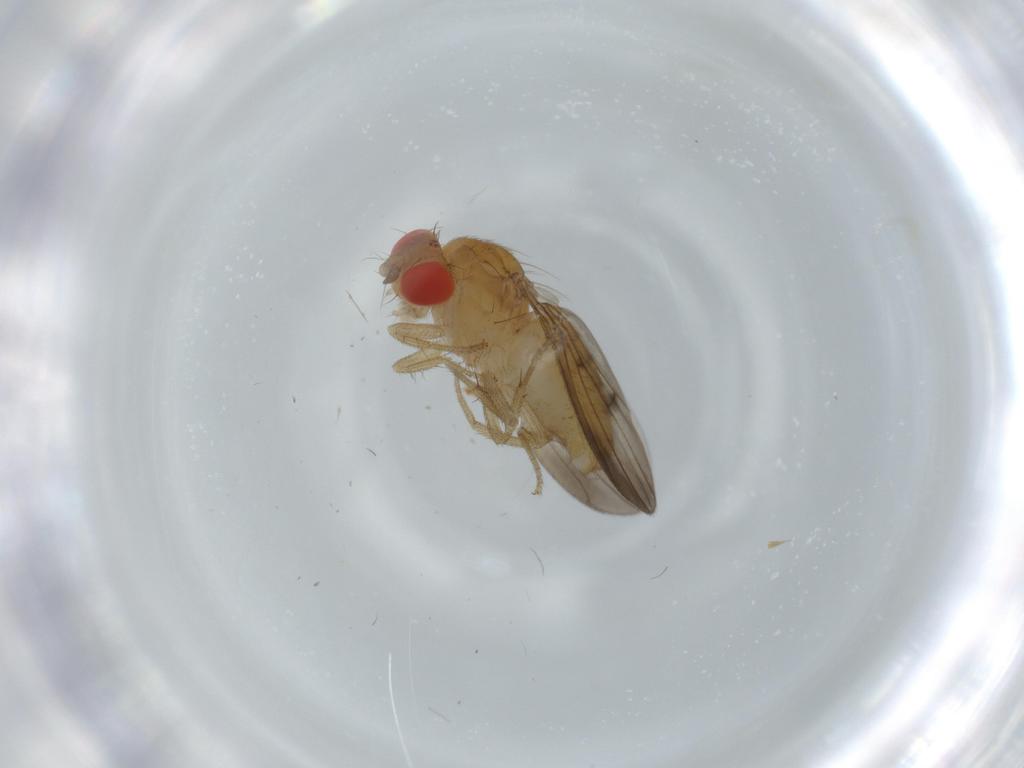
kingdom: Animalia
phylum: Arthropoda
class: Insecta
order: Diptera
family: Drosophilidae
